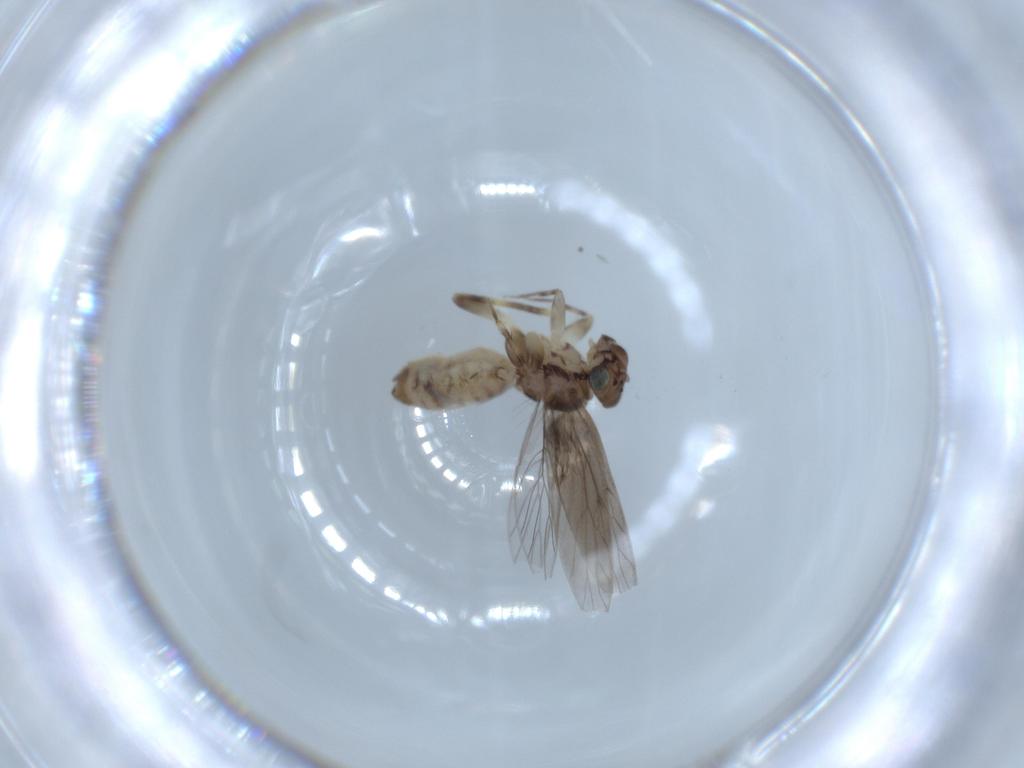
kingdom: Animalia
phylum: Arthropoda
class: Insecta
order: Psocodea
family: Lepidopsocidae
